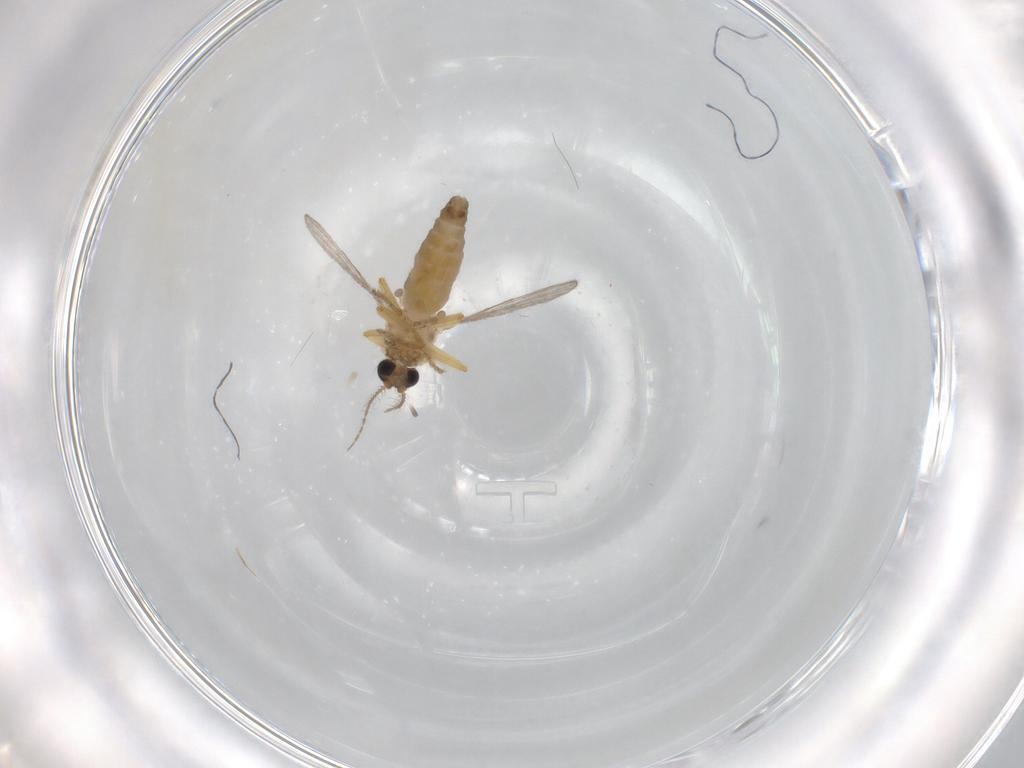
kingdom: Animalia
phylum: Arthropoda
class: Insecta
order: Diptera
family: Ceratopogonidae
